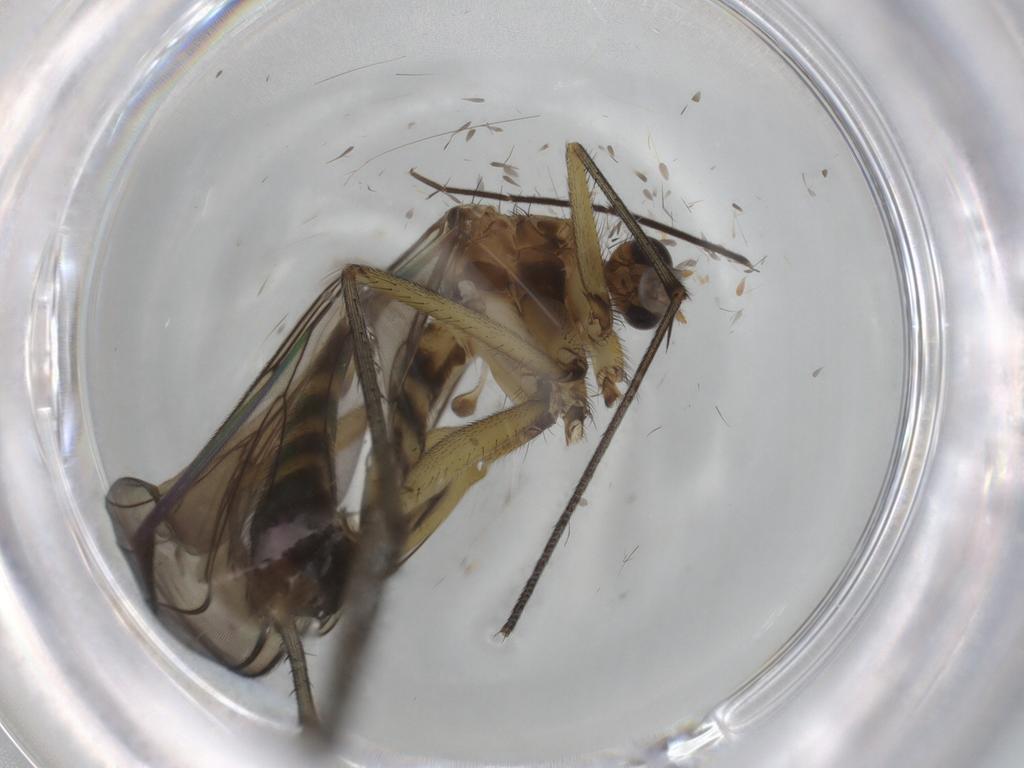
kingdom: Animalia
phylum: Arthropoda
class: Insecta
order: Diptera
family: Mycetophilidae
